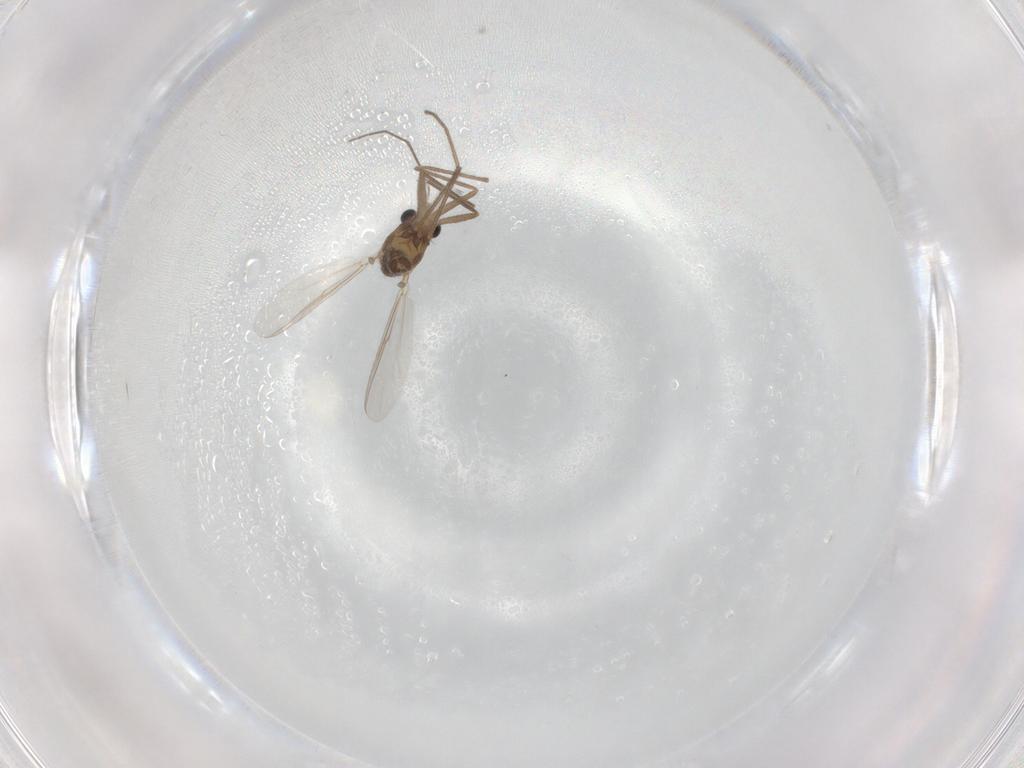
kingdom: Animalia
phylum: Arthropoda
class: Insecta
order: Diptera
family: Chironomidae
